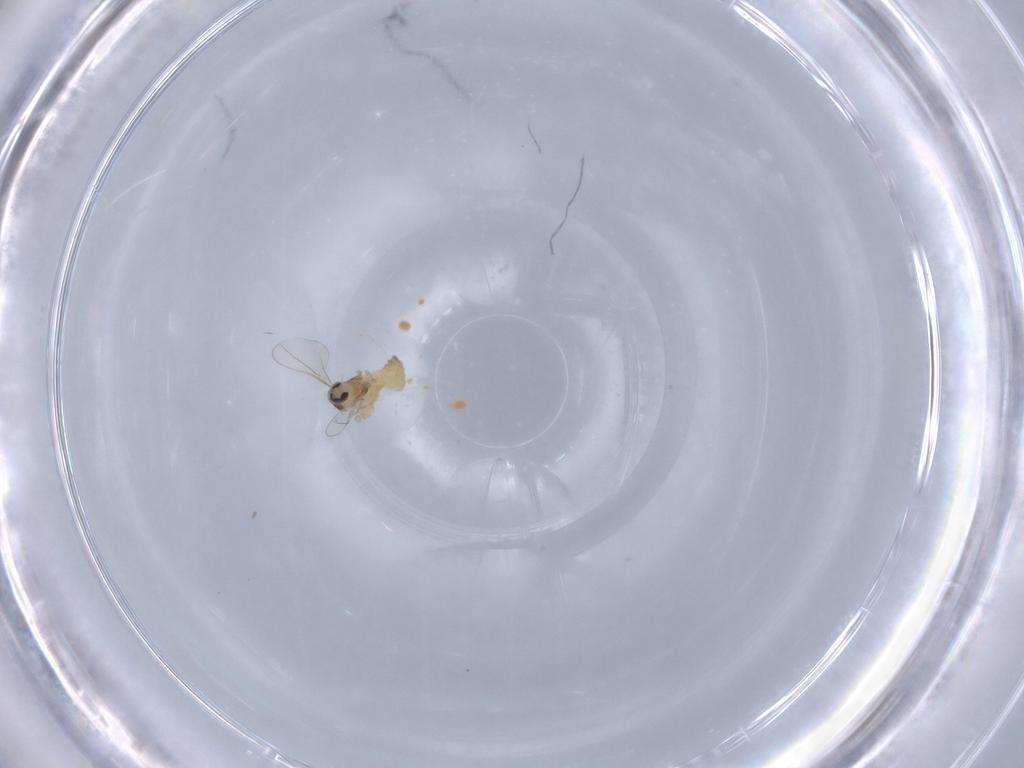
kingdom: Animalia
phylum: Arthropoda
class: Insecta
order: Diptera
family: Cecidomyiidae
